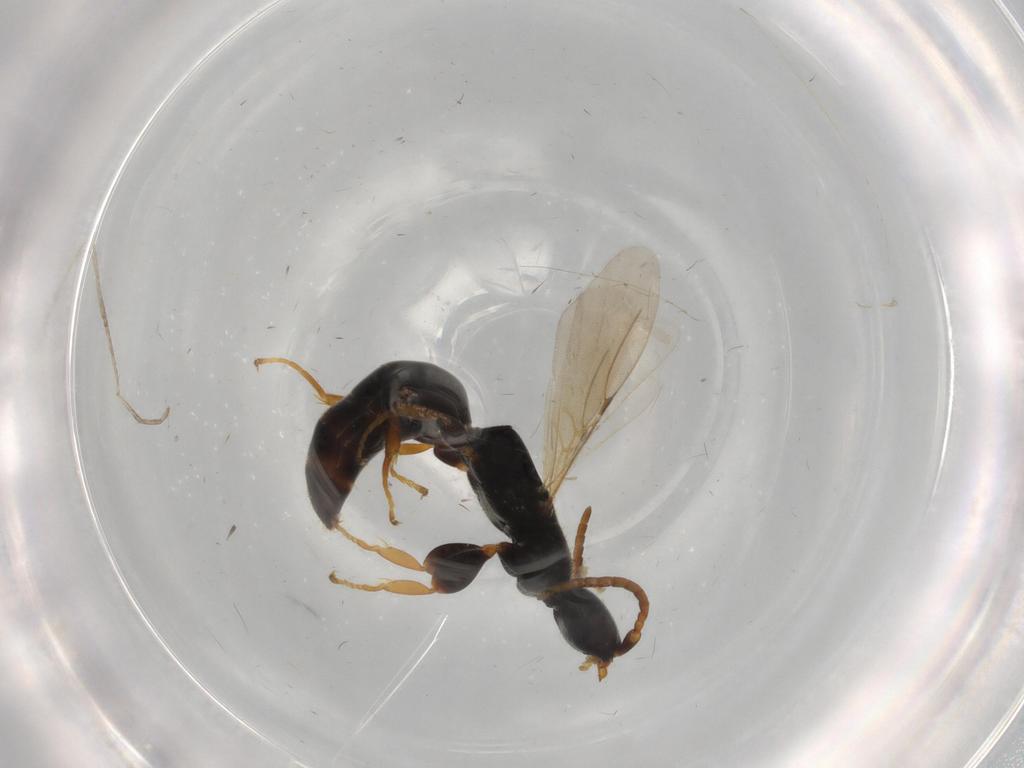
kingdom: Animalia
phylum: Arthropoda
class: Insecta
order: Hymenoptera
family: Bethylidae
